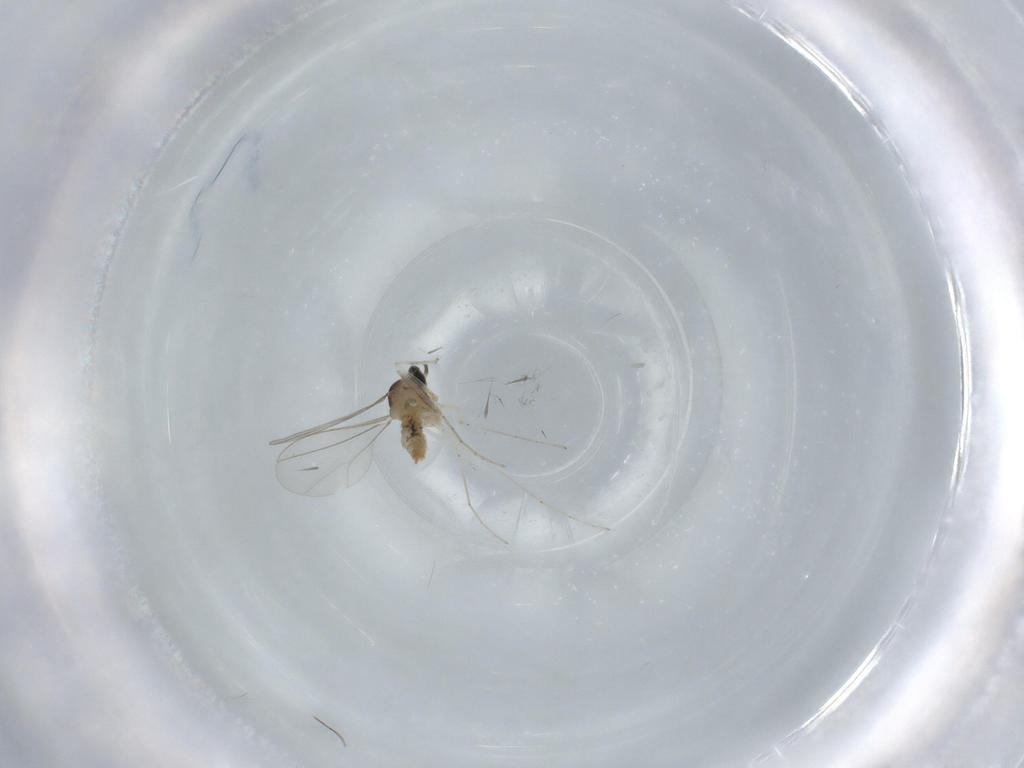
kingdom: Animalia
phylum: Arthropoda
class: Insecta
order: Diptera
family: Cecidomyiidae
